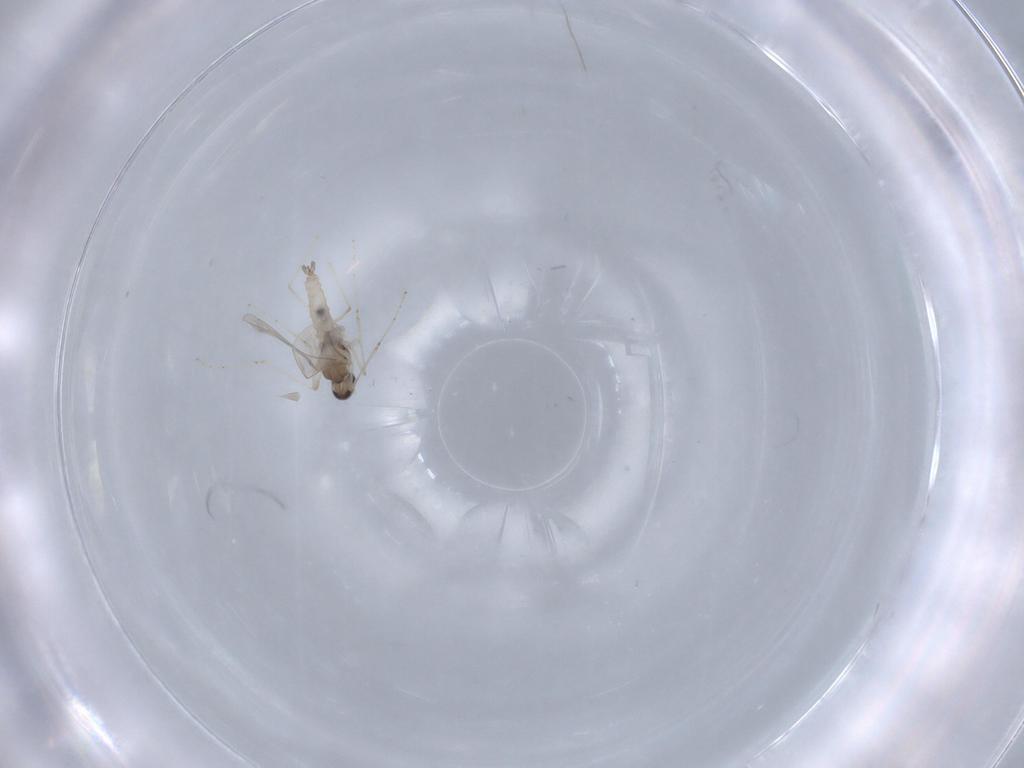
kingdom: Animalia
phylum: Arthropoda
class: Insecta
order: Diptera
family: Cecidomyiidae
